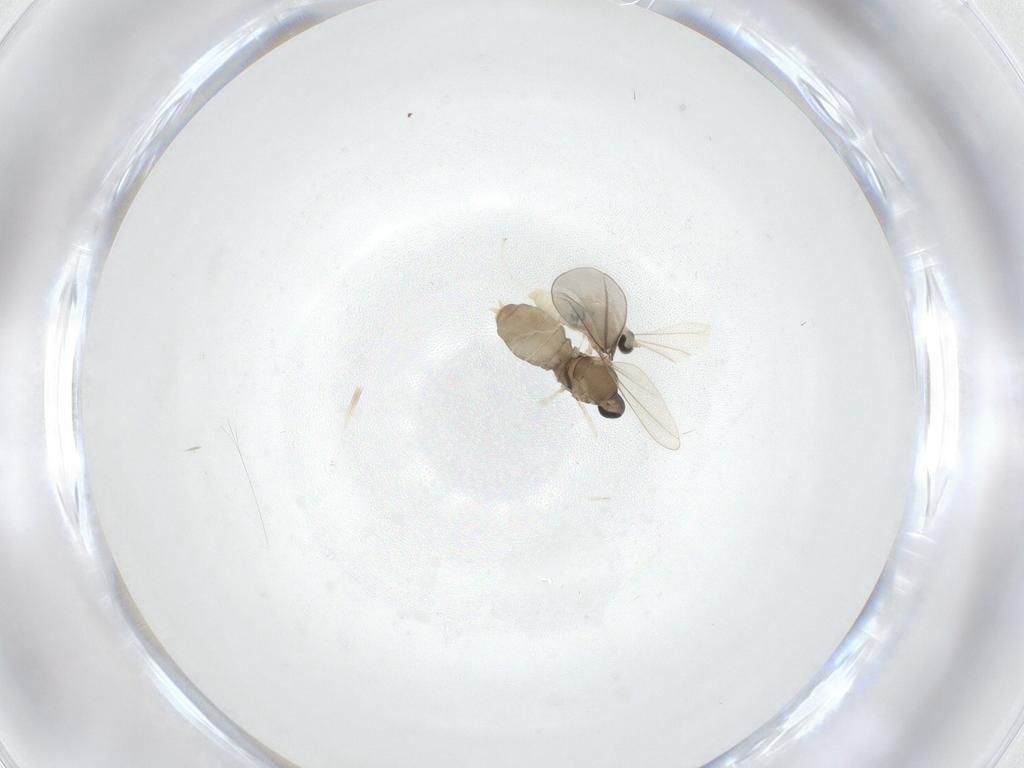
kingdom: Animalia
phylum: Arthropoda
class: Insecta
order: Diptera
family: Cecidomyiidae
